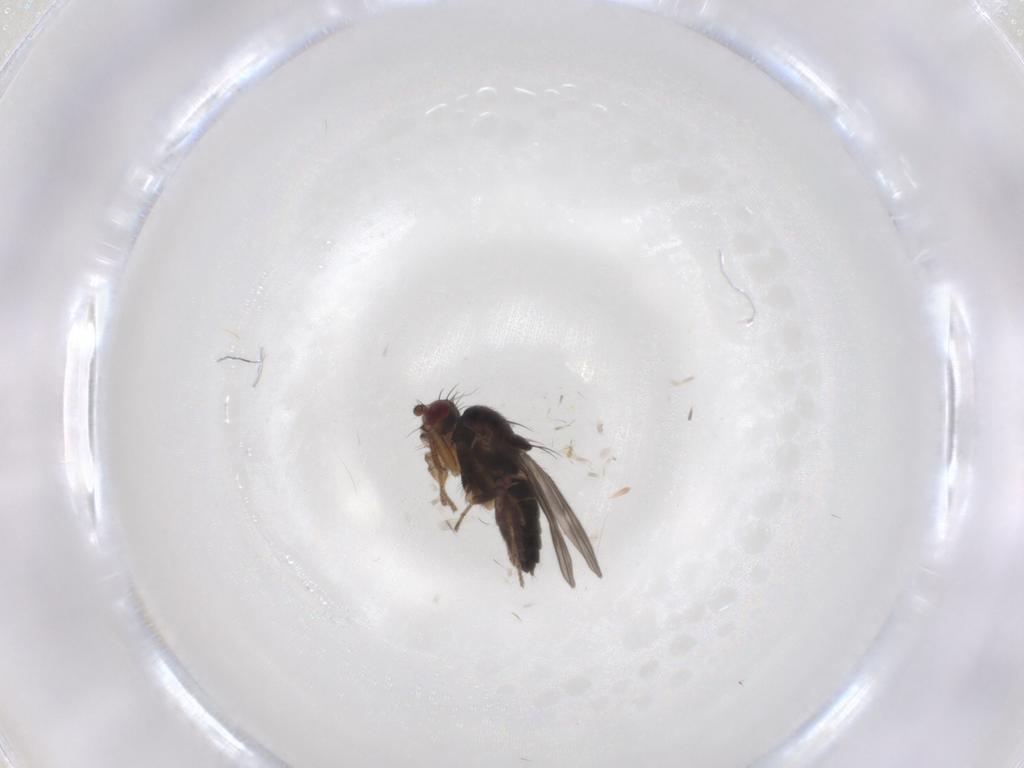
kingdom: Animalia
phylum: Arthropoda
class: Insecta
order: Diptera
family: Sphaeroceridae
